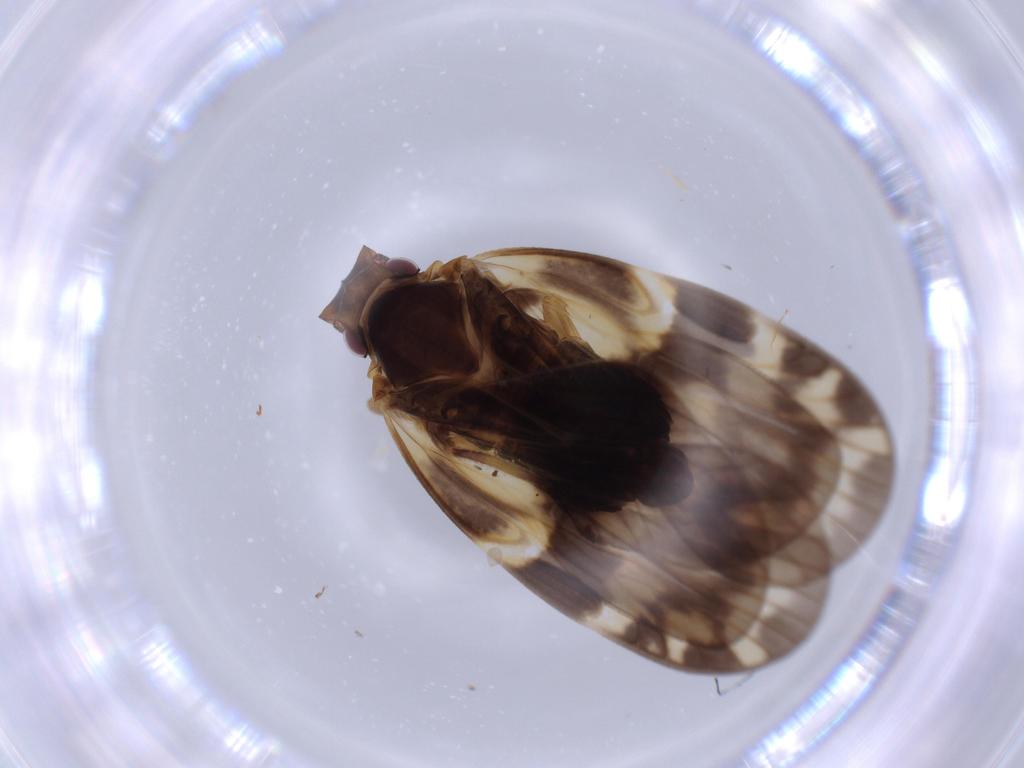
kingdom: Animalia
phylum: Arthropoda
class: Insecta
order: Hemiptera
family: Cixiidae
